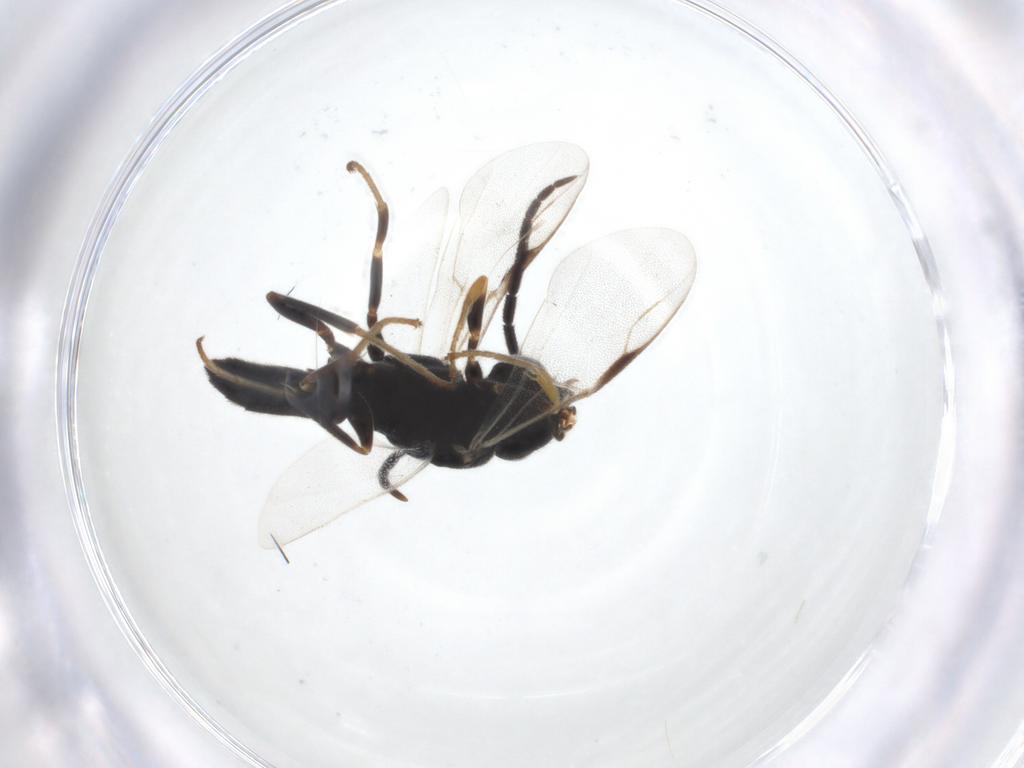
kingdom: Animalia
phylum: Arthropoda
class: Insecta
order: Hymenoptera
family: Dryinidae
